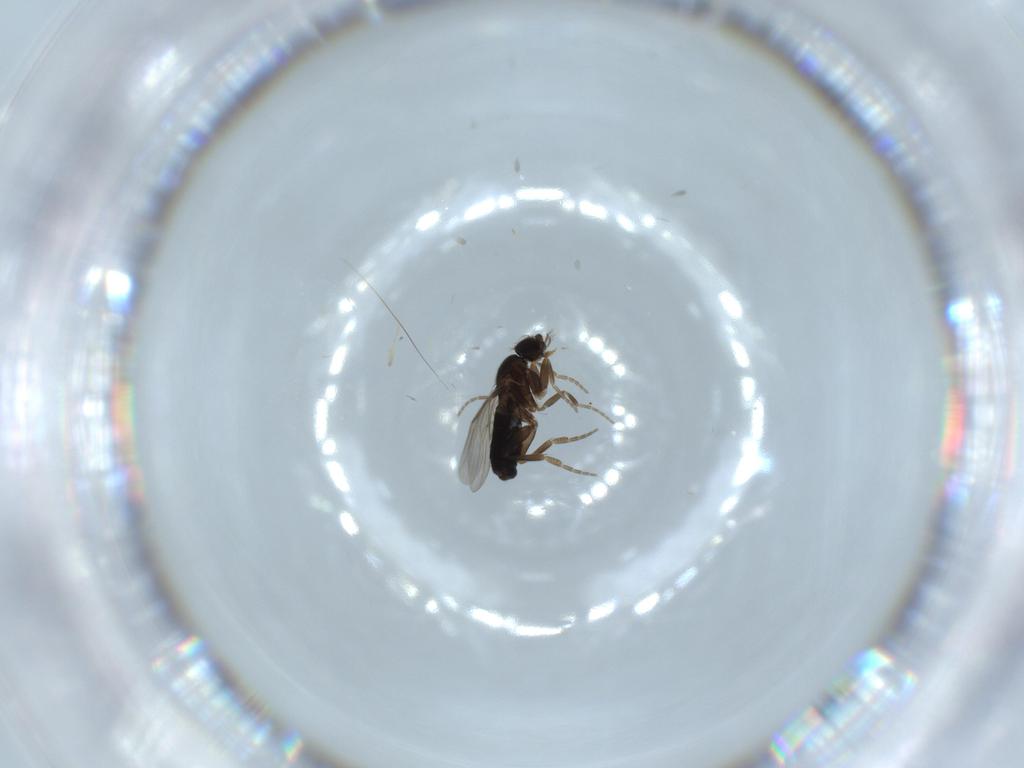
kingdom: Animalia
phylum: Arthropoda
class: Insecta
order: Diptera
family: Phoridae
